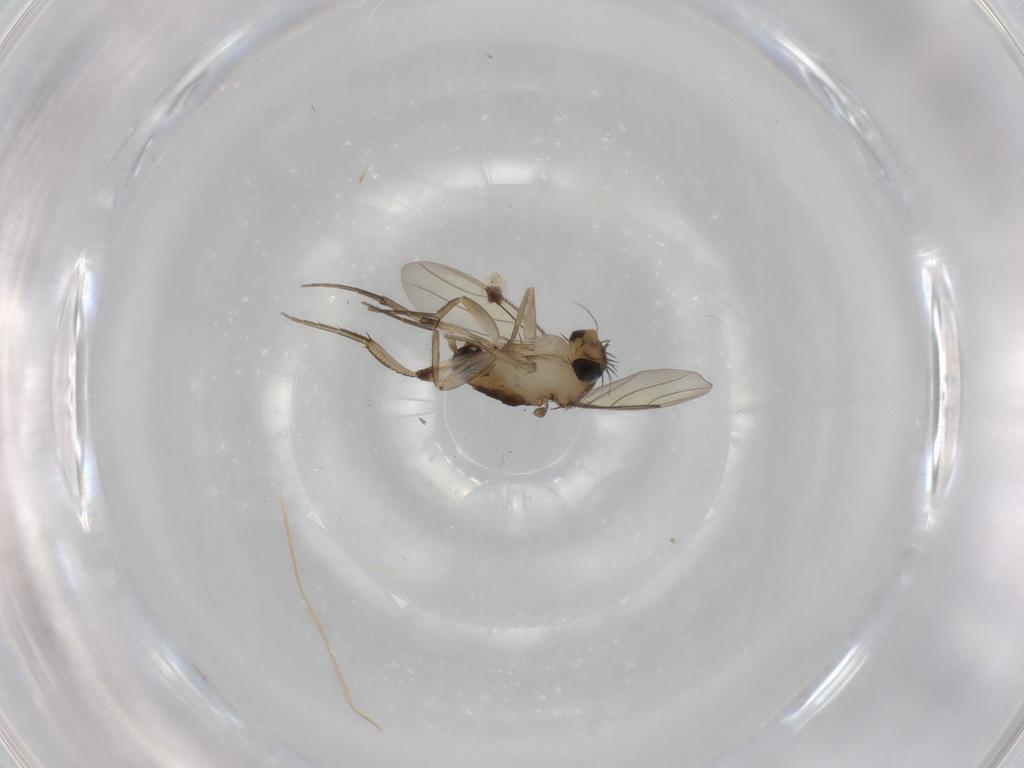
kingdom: Animalia
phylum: Arthropoda
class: Insecta
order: Diptera
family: Phoridae
